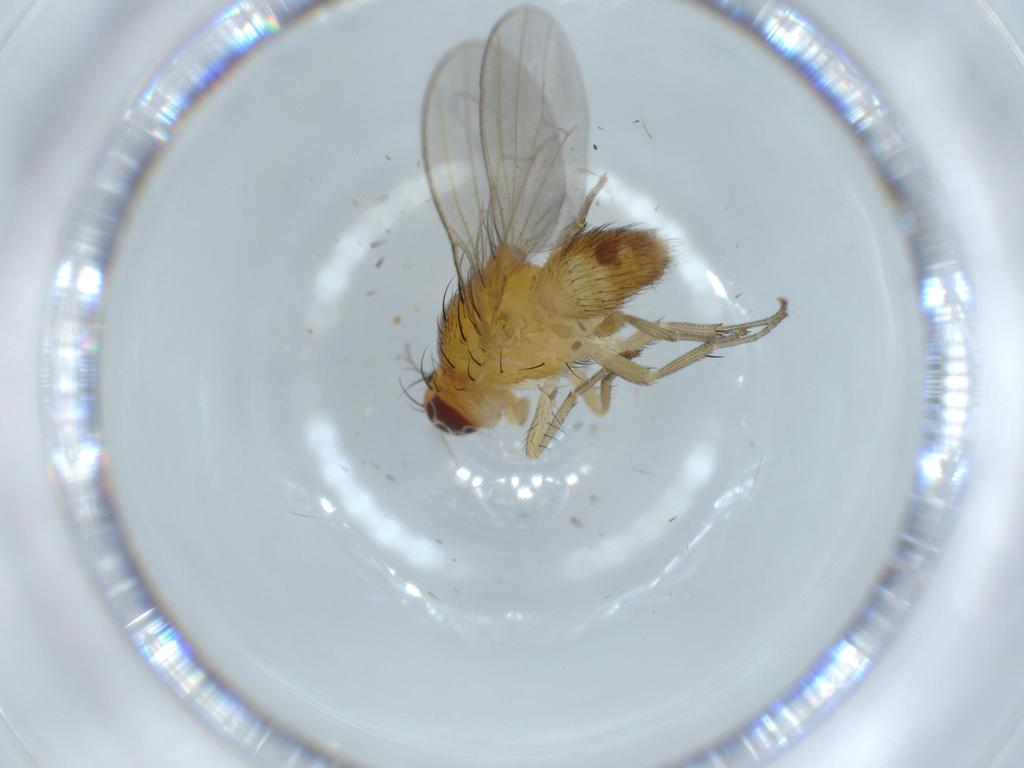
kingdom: Animalia
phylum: Arthropoda
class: Insecta
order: Diptera
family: Lauxaniidae
